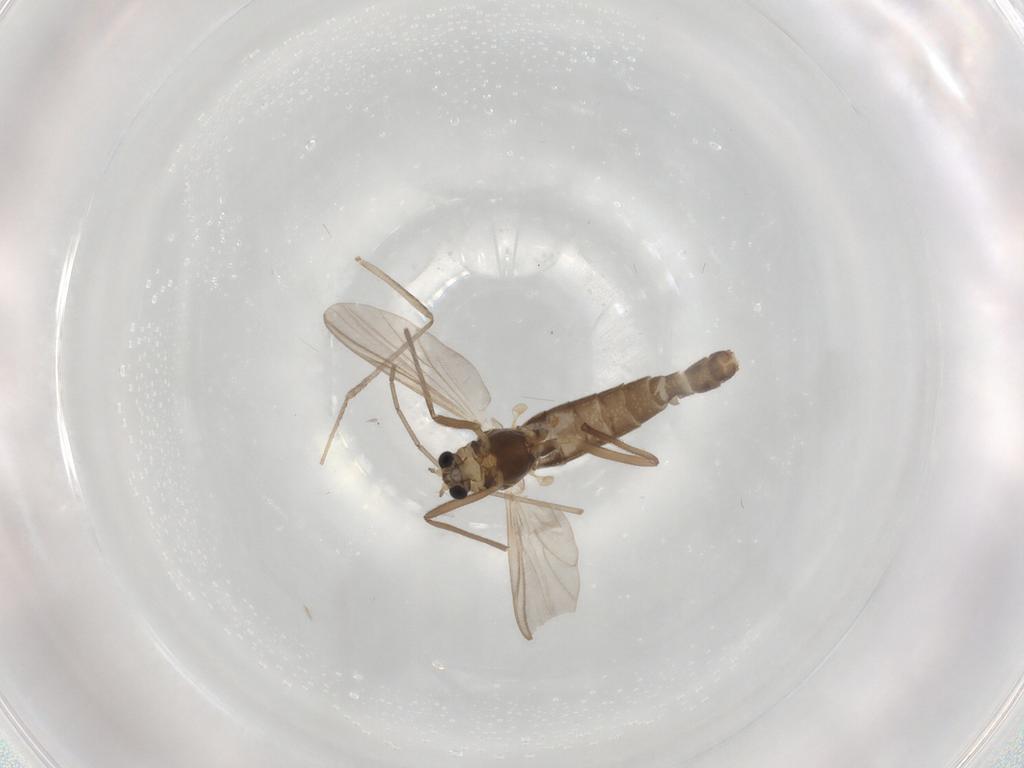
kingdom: Animalia
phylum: Arthropoda
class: Insecta
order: Diptera
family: Chironomidae
